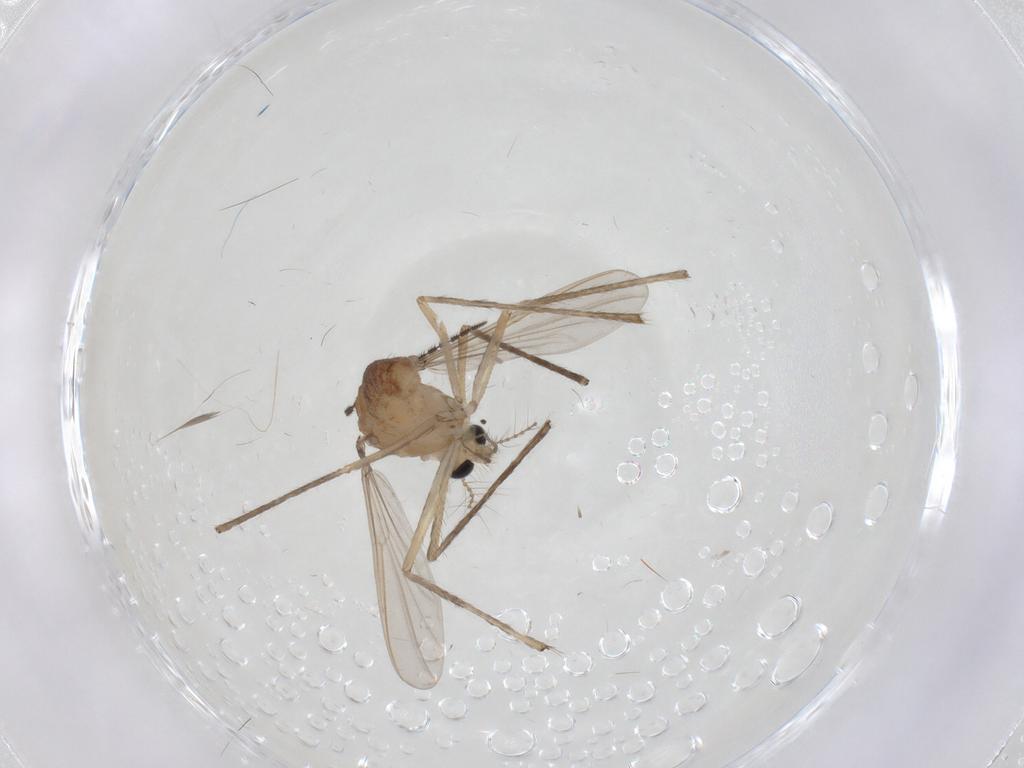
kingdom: Animalia
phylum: Arthropoda
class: Insecta
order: Diptera
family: Chironomidae
